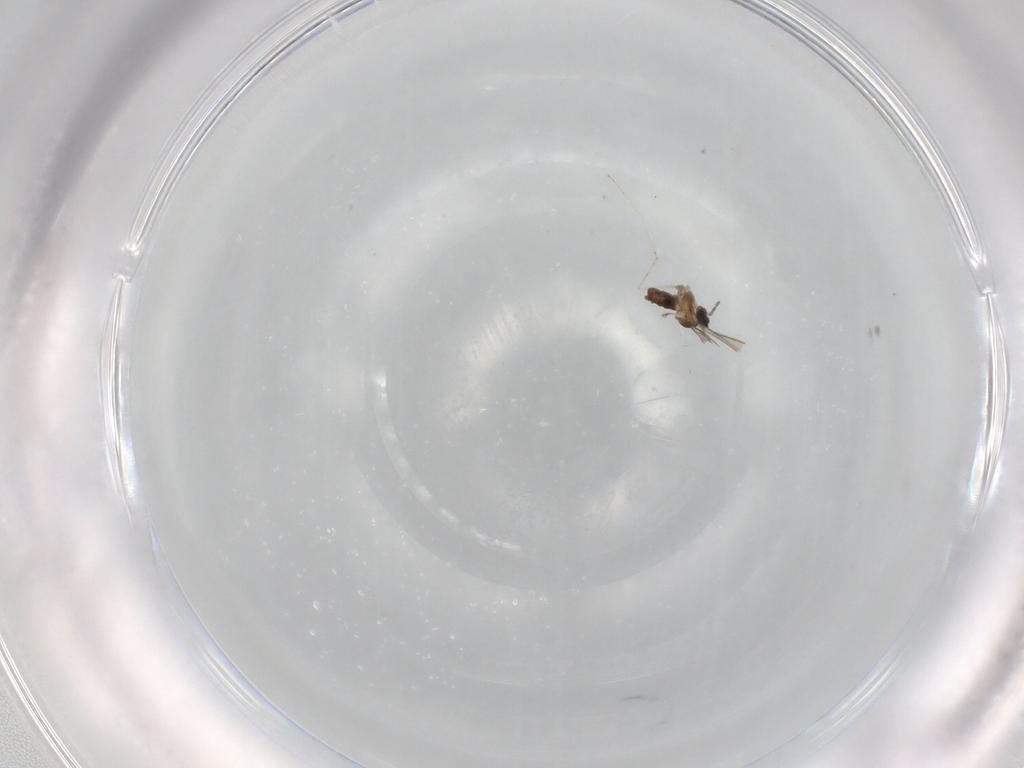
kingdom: Animalia
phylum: Arthropoda
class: Insecta
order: Diptera
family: Cecidomyiidae
